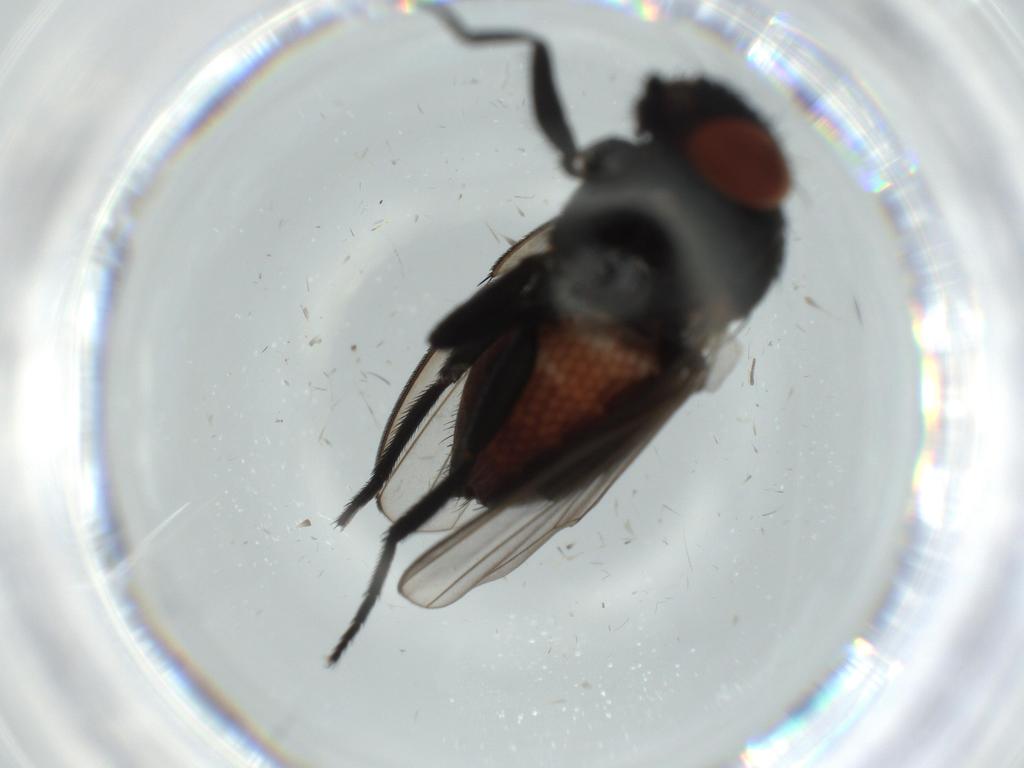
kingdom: Animalia
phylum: Arthropoda
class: Insecta
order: Diptera
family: Milichiidae
